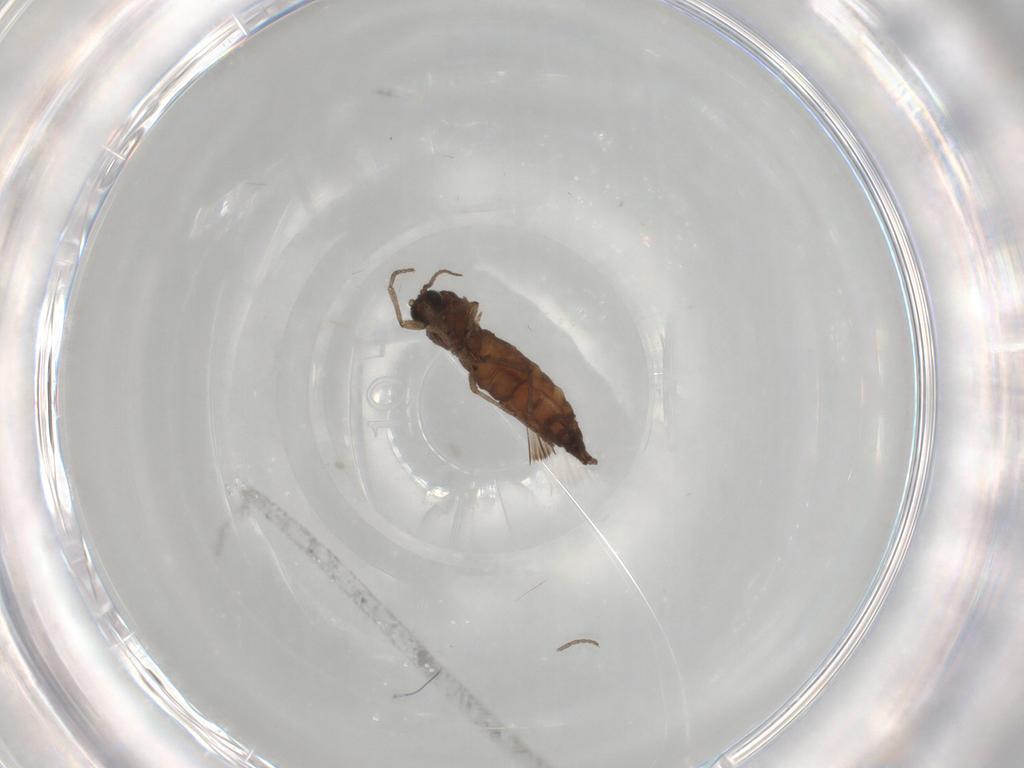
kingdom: Animalia
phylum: Arthropoda
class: Insecta
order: Diptera
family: Sciaridae
